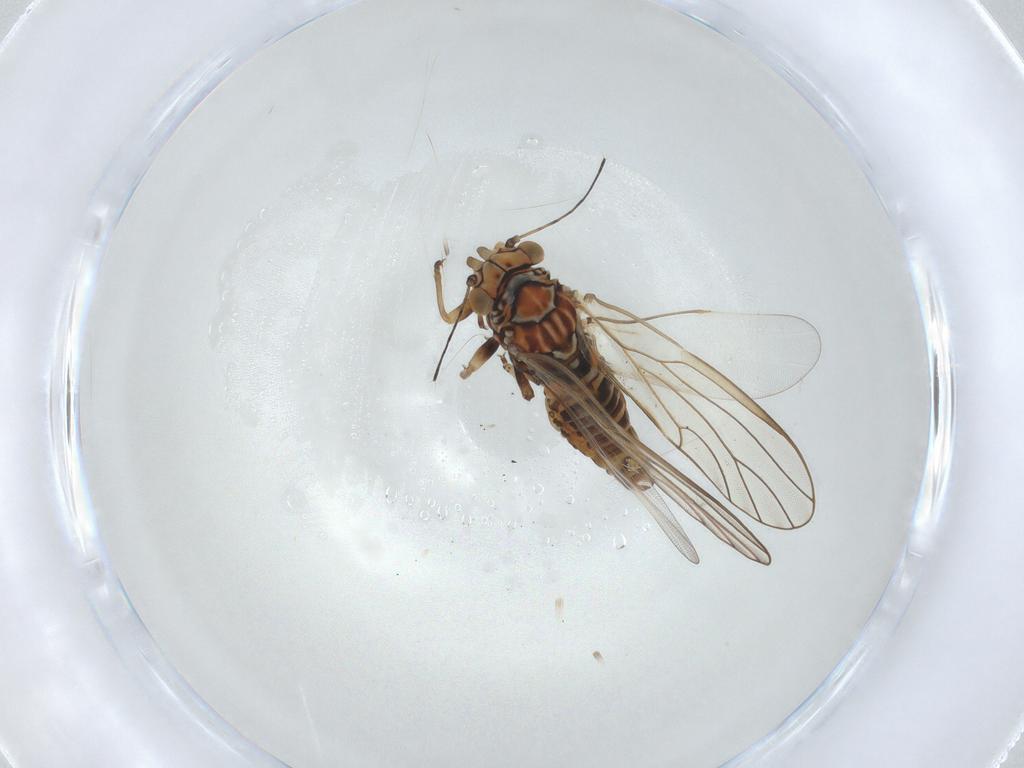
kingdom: Animalia
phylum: Arthropoda
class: Insecta
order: Hemiptera
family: Psyllidae
